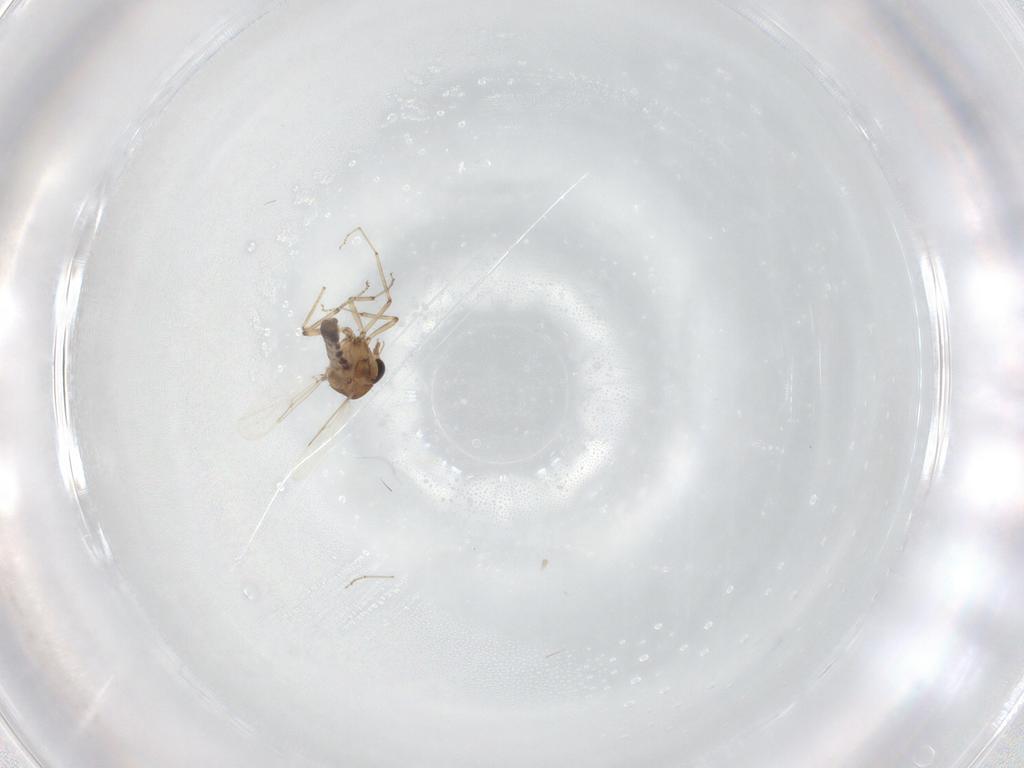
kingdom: Animalia
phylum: Arthropoda
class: Insecta
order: Diptera
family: Ceratopogonidae
